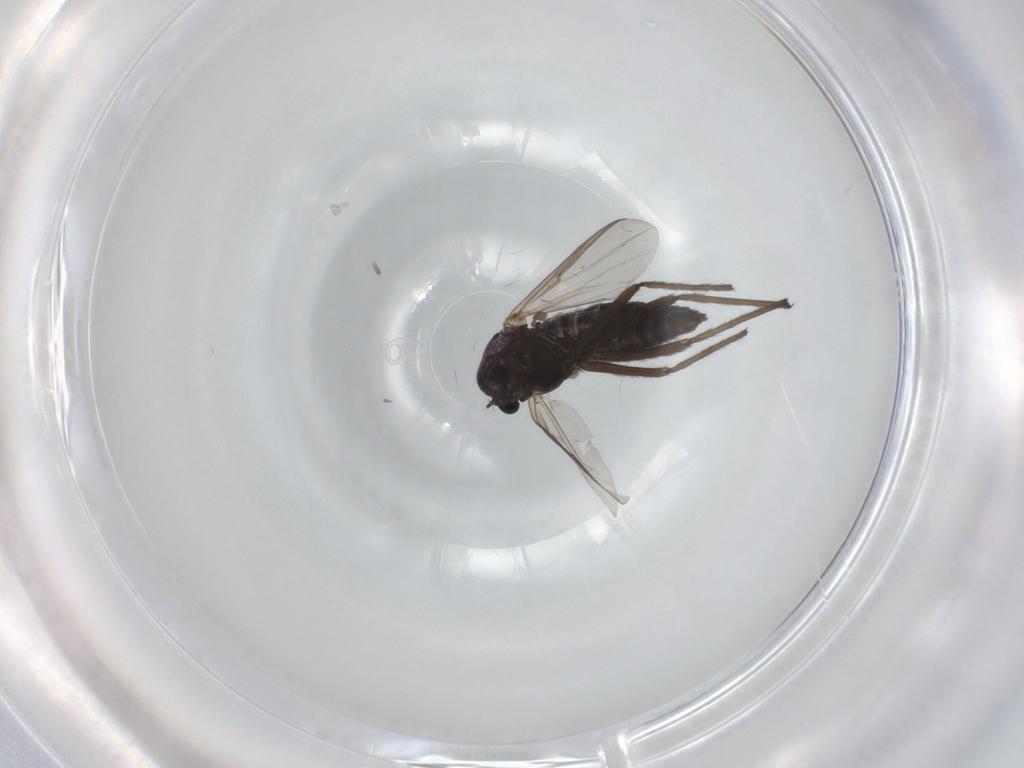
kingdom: Animalia
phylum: Arthropoda
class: Insecta
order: Diptera
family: Chironomidae
